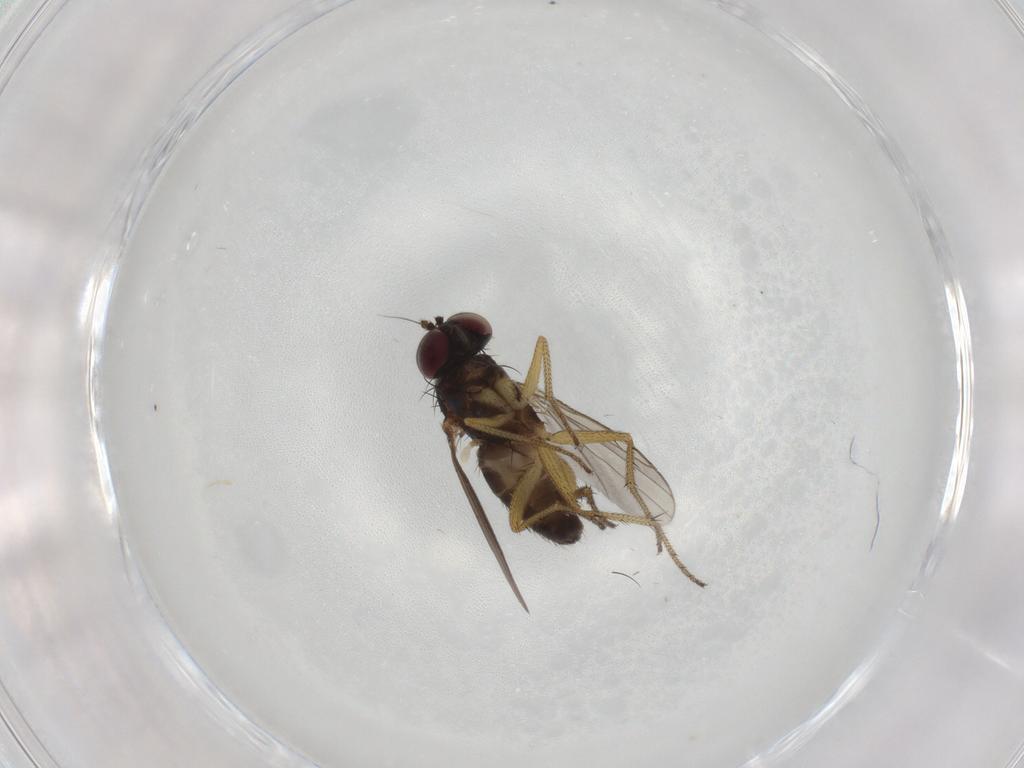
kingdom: Animalia
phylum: Arthropoda
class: Insecta
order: Diptera
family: Dolichopodidae
